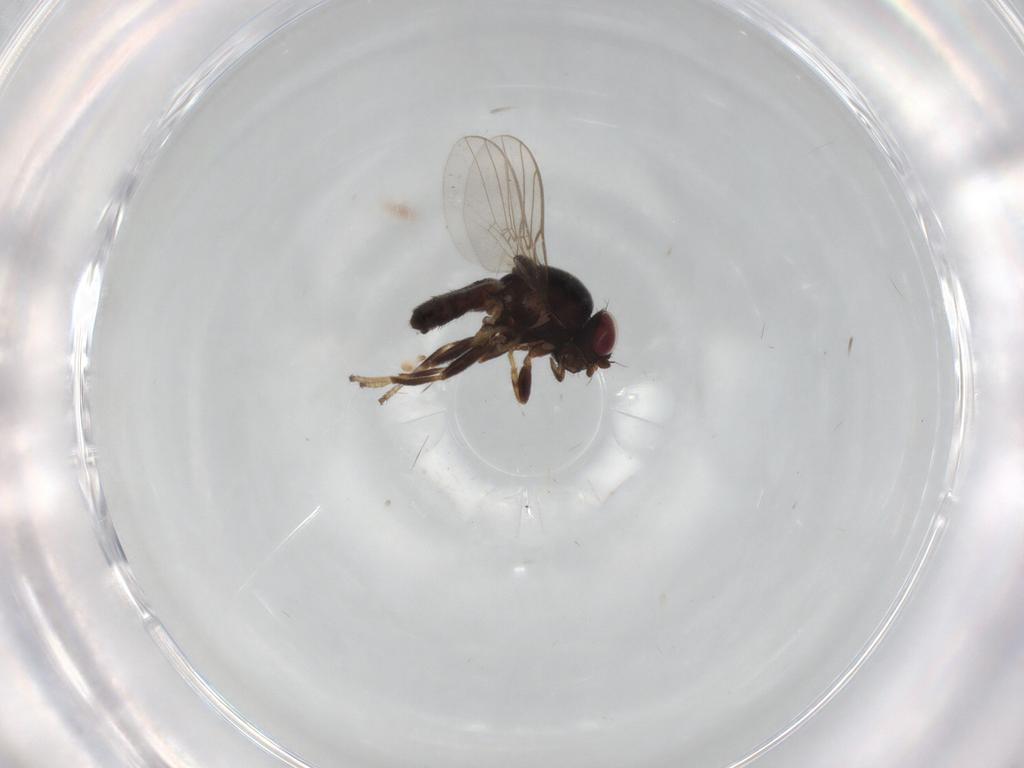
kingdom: Animalia
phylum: Arthropoda
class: Insecta
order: Diptera
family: Chloropidae
